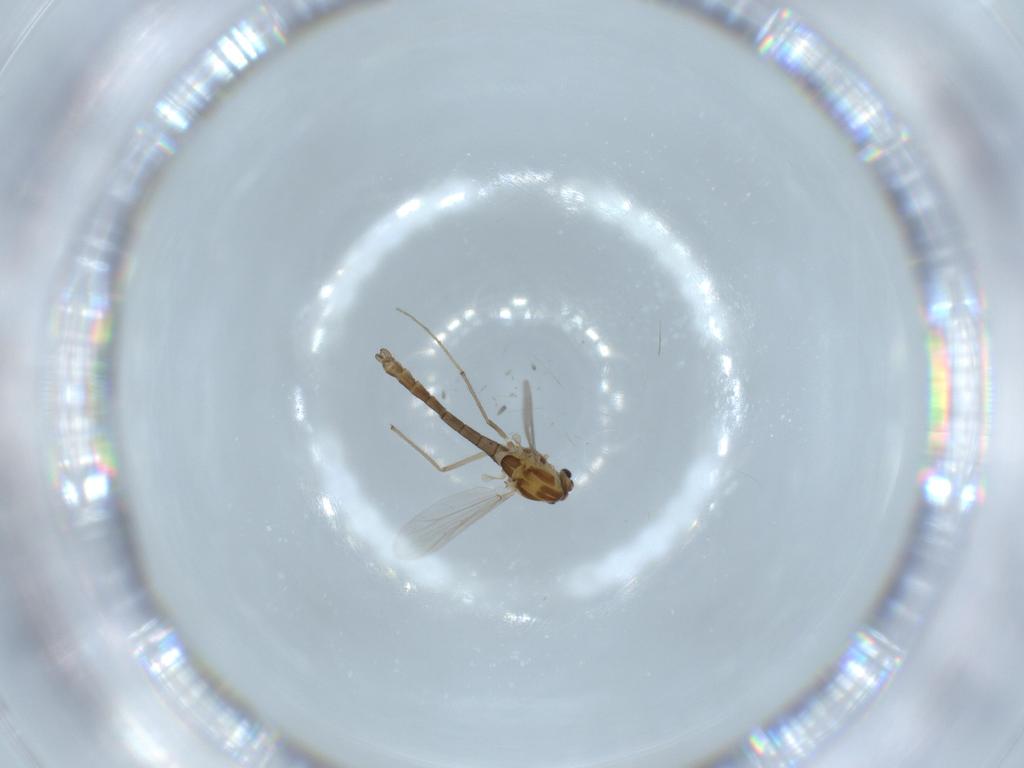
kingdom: Animalia
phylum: Arthropoda
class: Insecta
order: Diptera
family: Chironomidae
